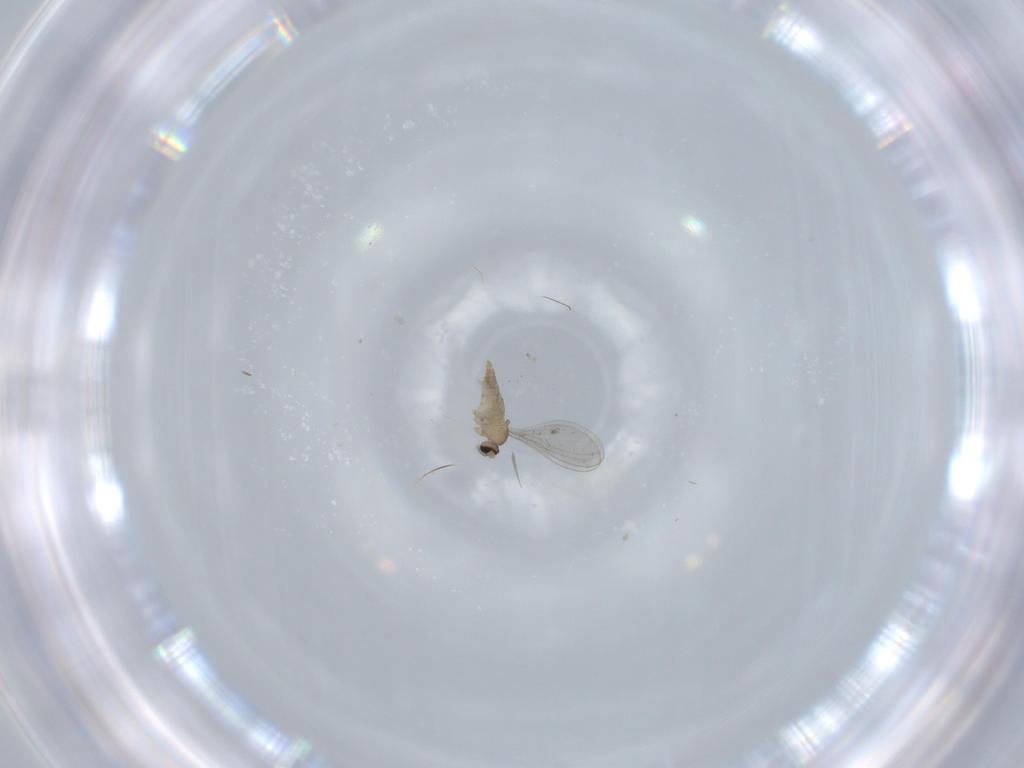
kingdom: Animalia
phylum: Arthropoda
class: Insecta
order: Diptera
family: Cecidomyiidae
